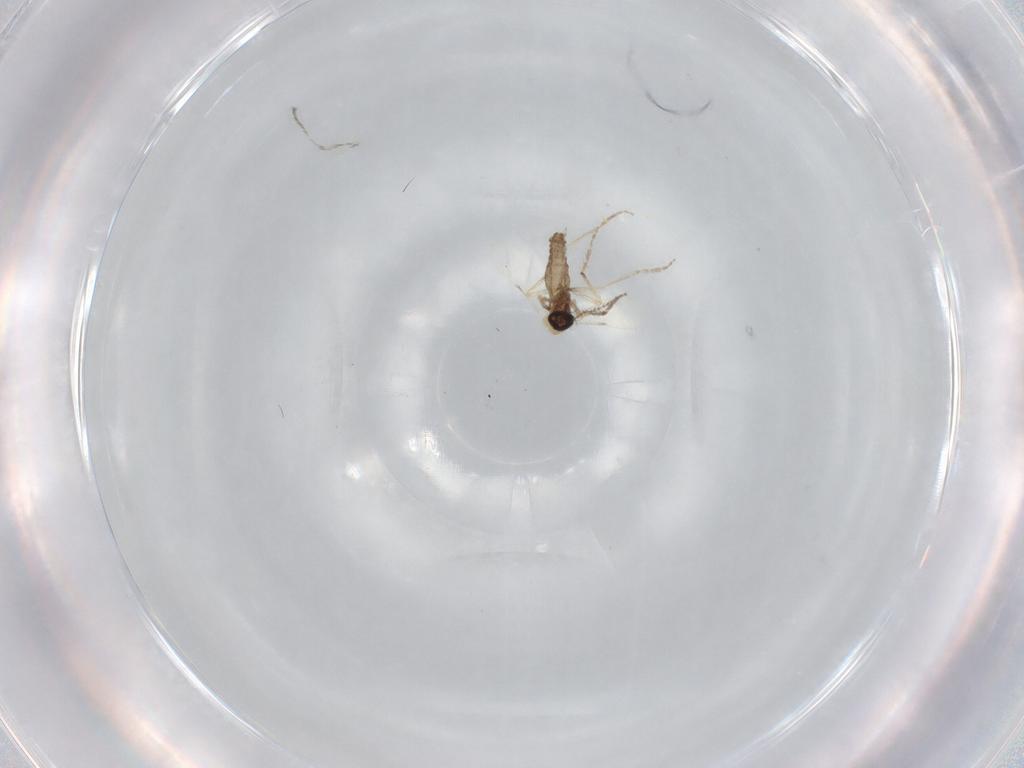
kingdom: Animalia
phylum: Arthropoda
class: Insecta
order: Diptera
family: Ceratopogonidae
